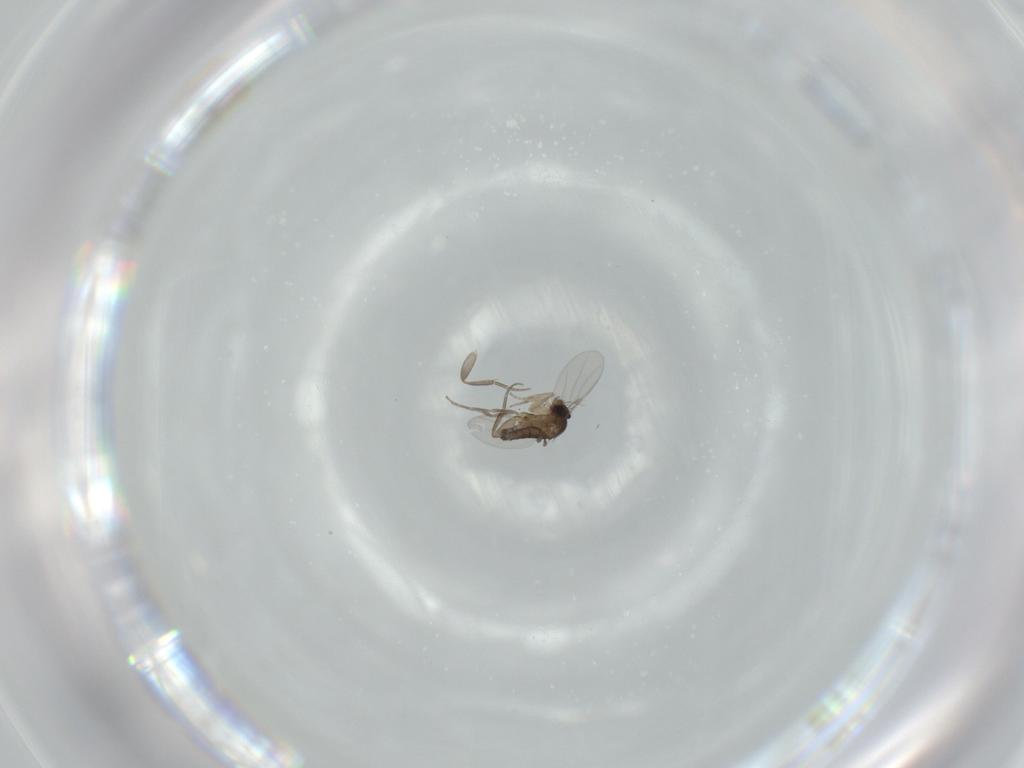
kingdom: Animalia
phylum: Arthropoda
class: Insecta
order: Diptera
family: Phoridae
